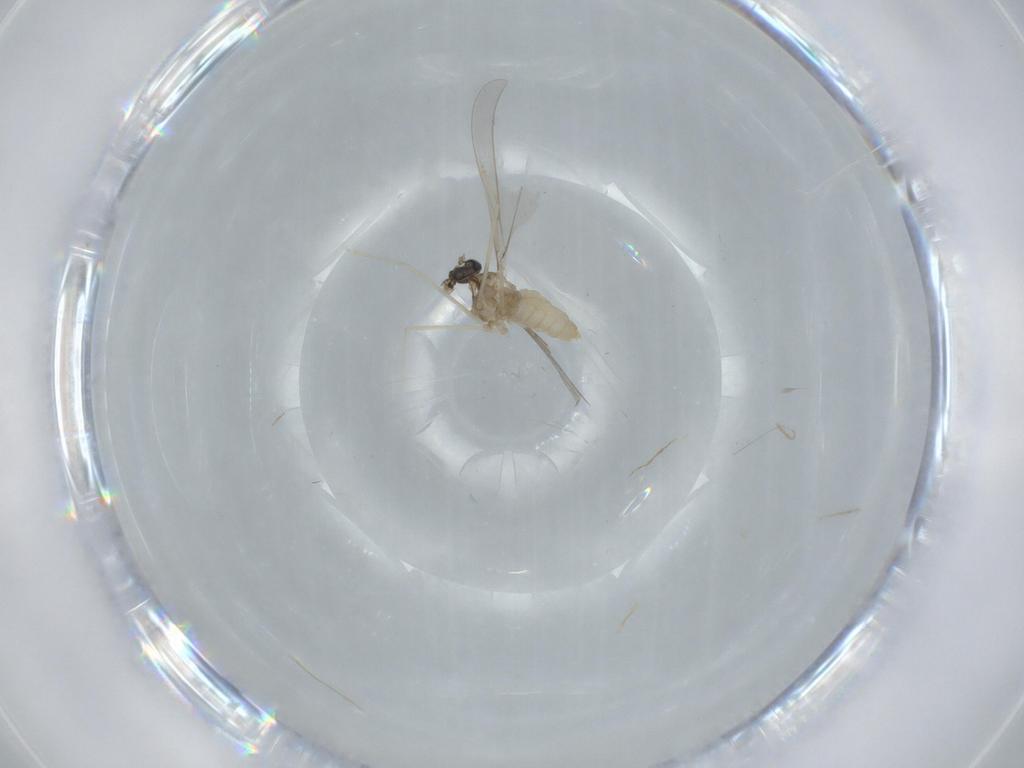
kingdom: Animalia
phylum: Arthropoda
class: Insecta
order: Diptera
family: Cecidomyiidae
